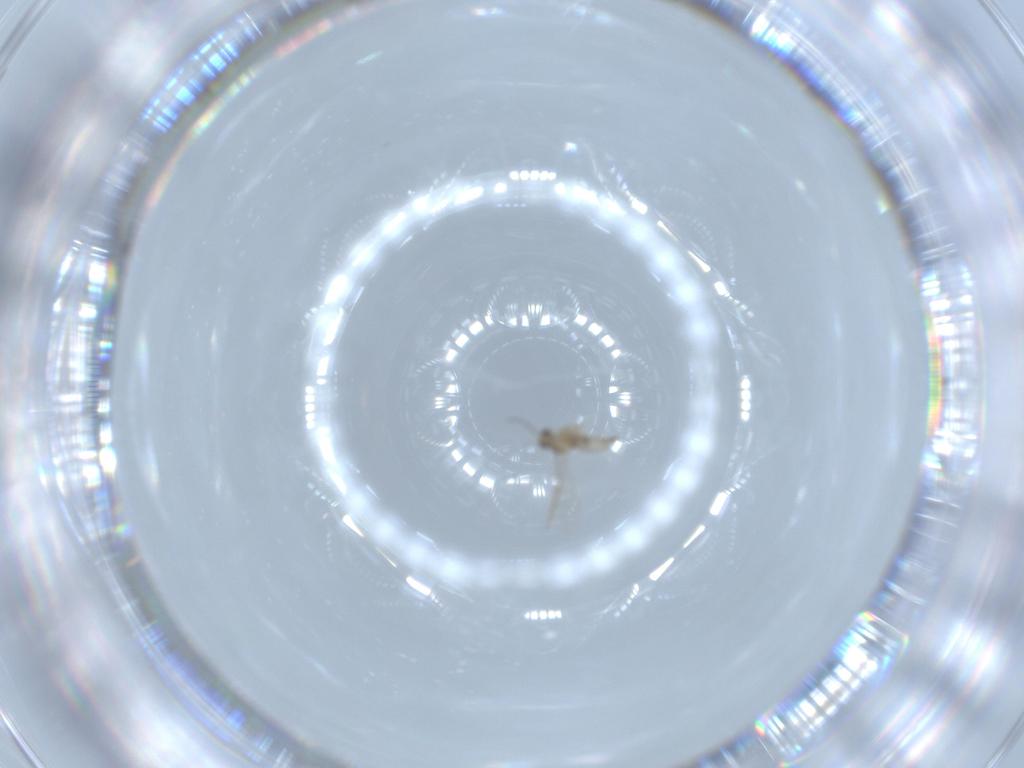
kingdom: Animalia
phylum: Arthropoda
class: Insecta
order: Diptera
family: Cecidomyiidae
